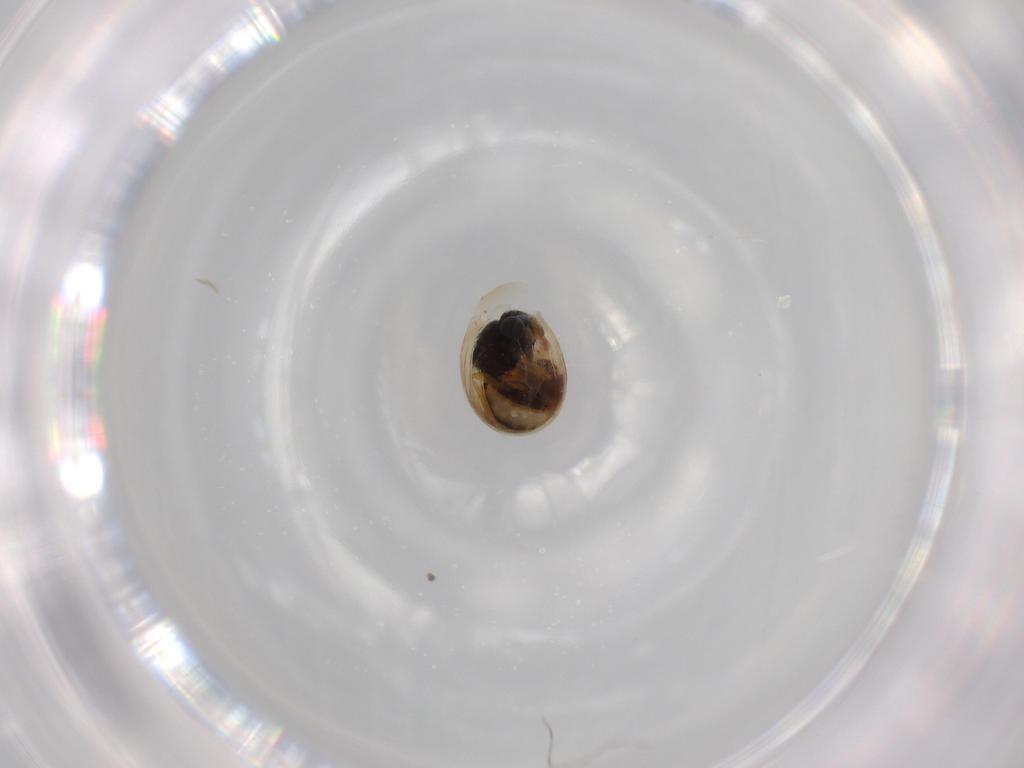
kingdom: Animalia
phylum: Arthropoda
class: Insecta
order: Hymenoptera
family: Scelionidae
